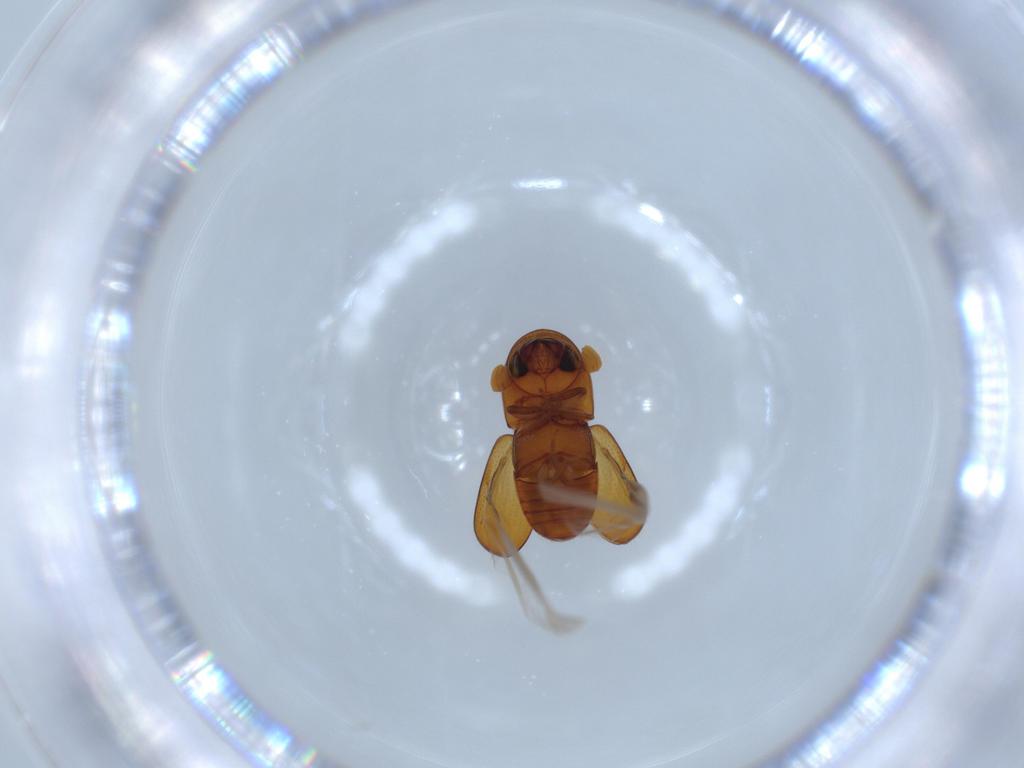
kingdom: Animalia
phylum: Arthropoda
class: Insecta
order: Coleoptera
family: Curculionidae
